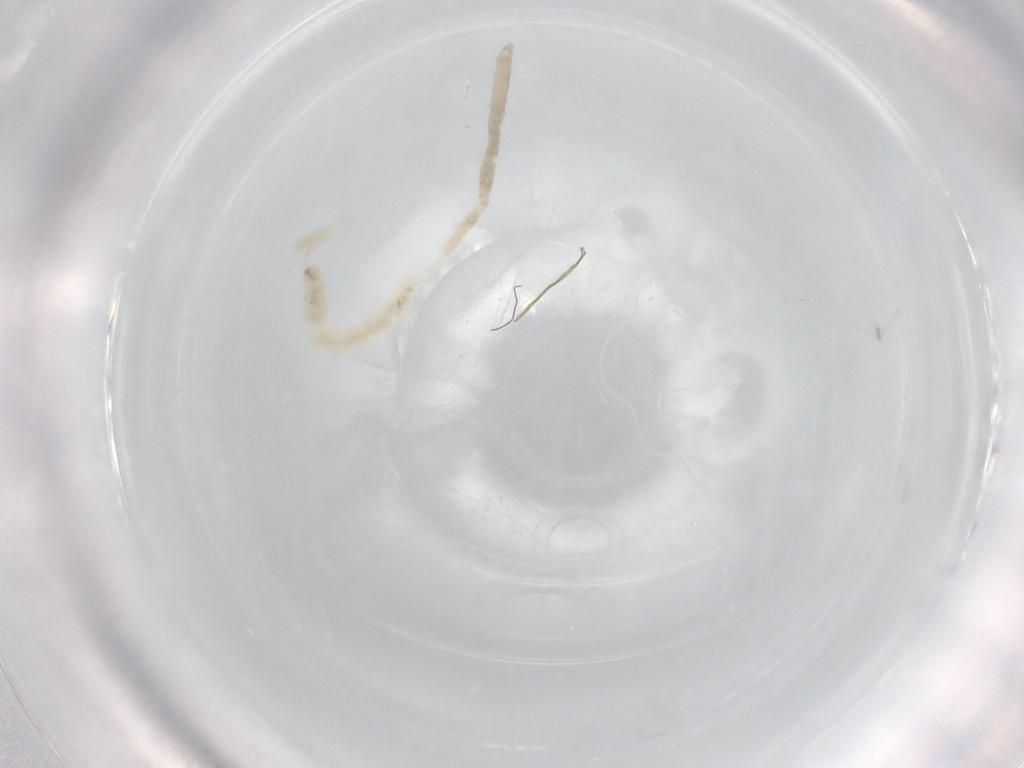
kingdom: Animalia
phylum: Arthropoda
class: Insecta
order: Diptera
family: Chironomidae
